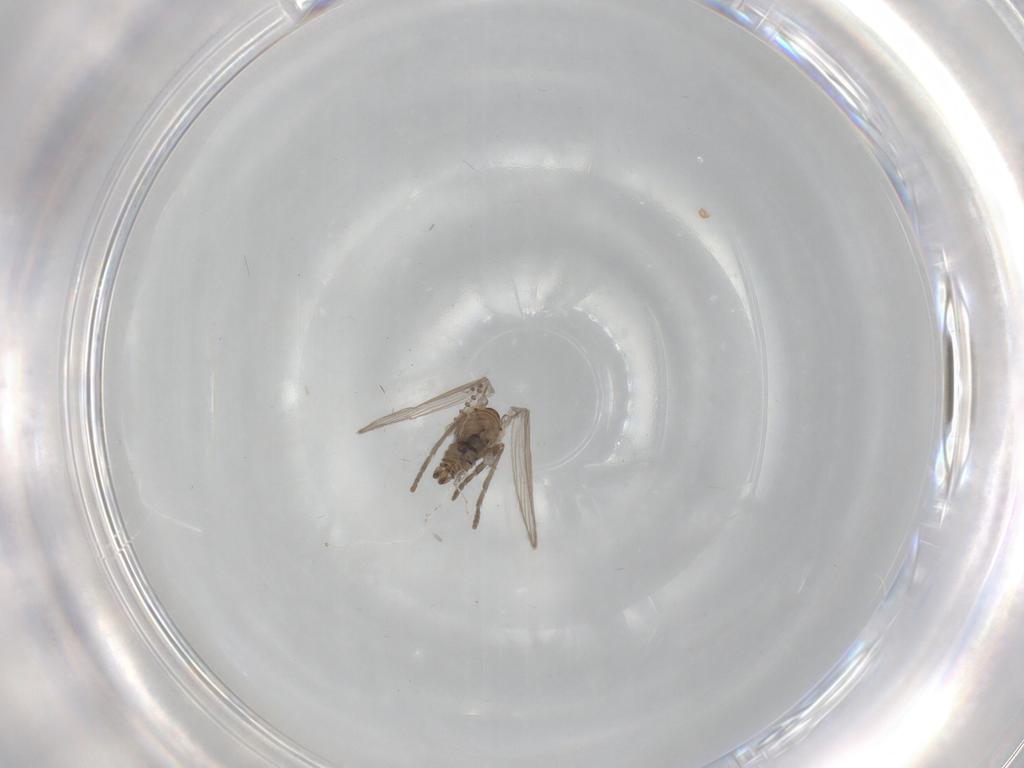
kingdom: Animalia
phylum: Arthropoda
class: Insecta
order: Diptera
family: Psychodidae
